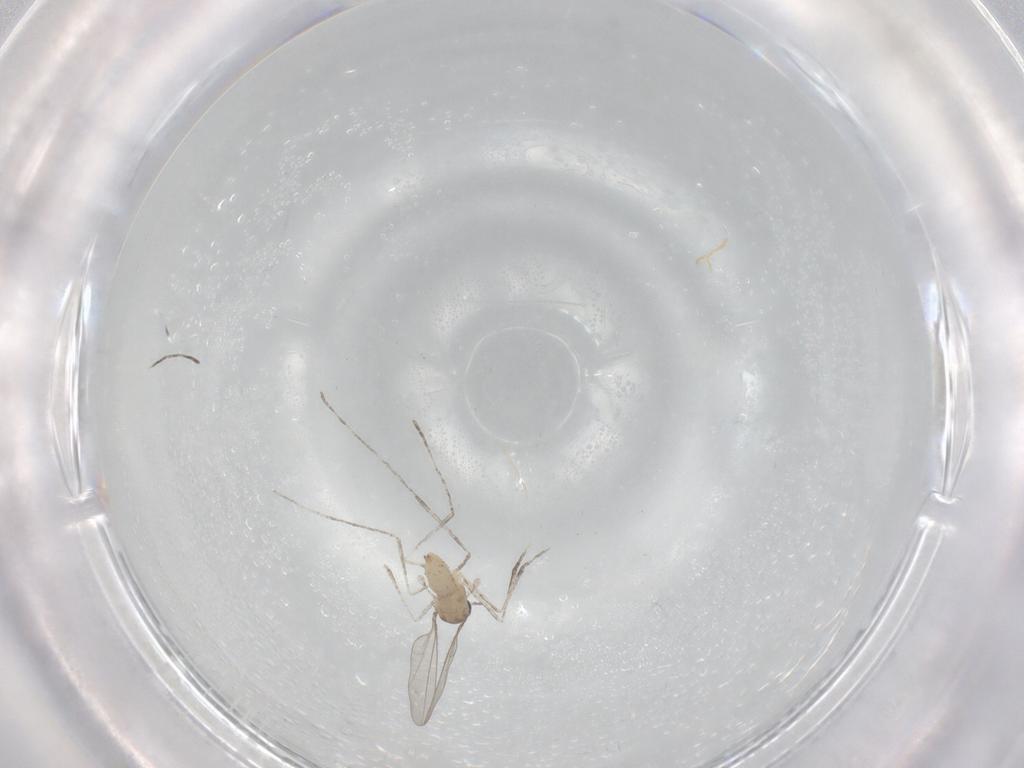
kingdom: Animalia
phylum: Arthropoda
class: Insecta
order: Diptera
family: Cecidomyiidae
